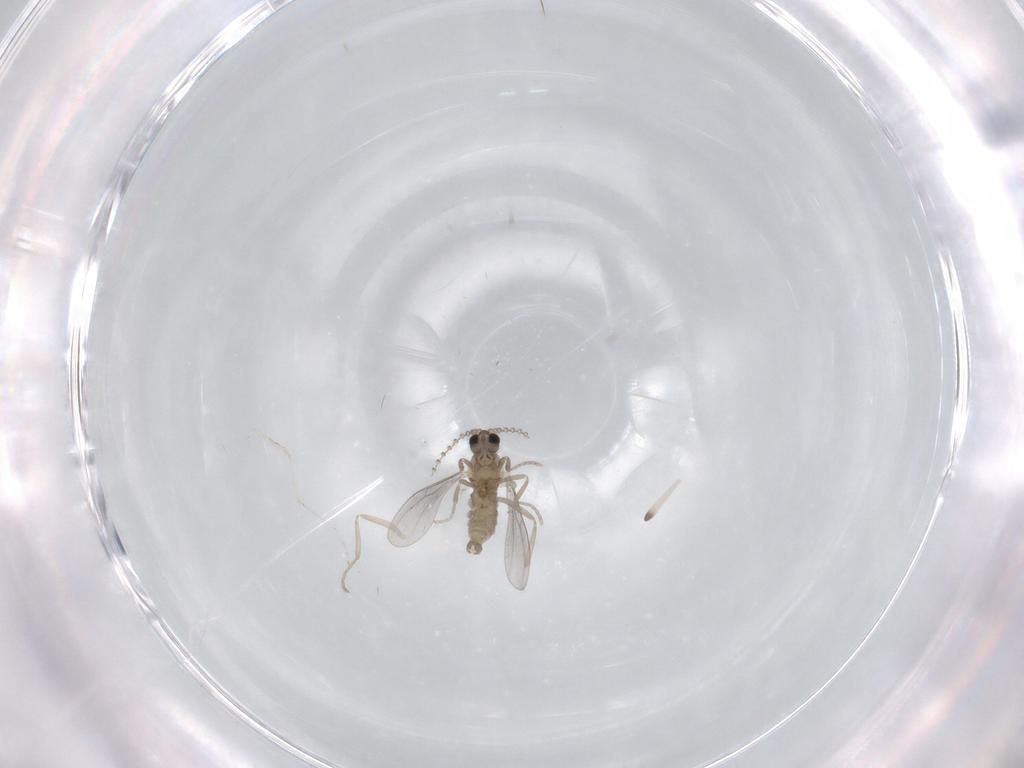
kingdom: Animalia
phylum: Arthropoda
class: Insecta
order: Diptera
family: Cecidomyiidae
